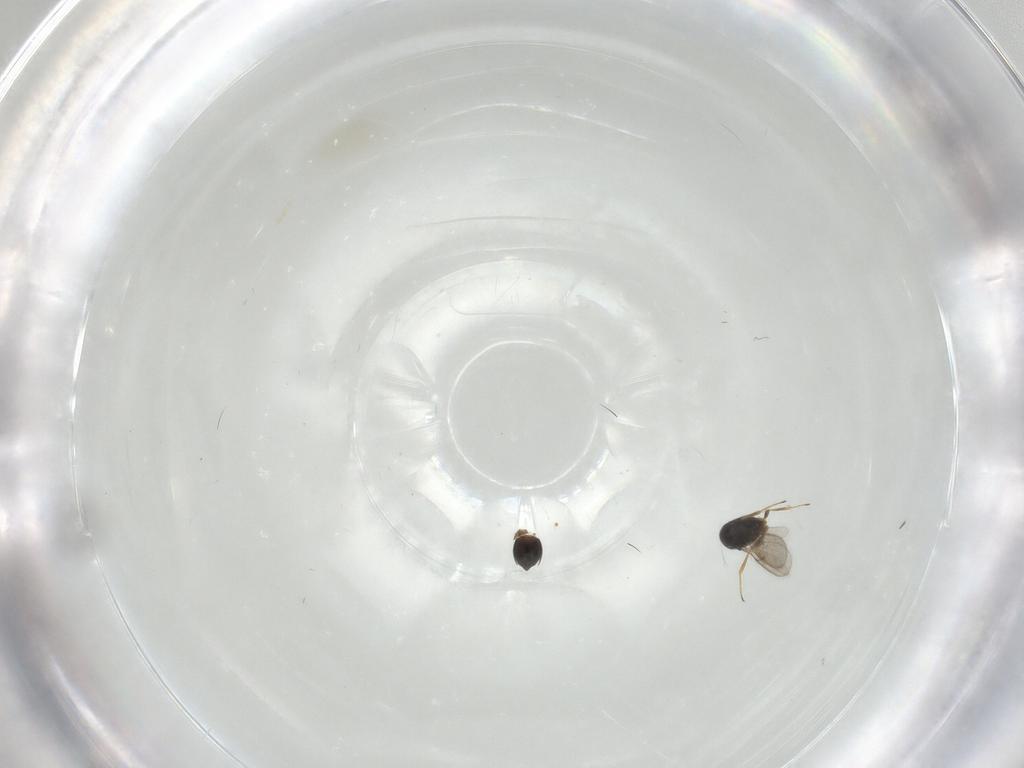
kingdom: Animalia
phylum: Arthropoda
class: Insecta
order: Hymenoptera
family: Scelionidae
